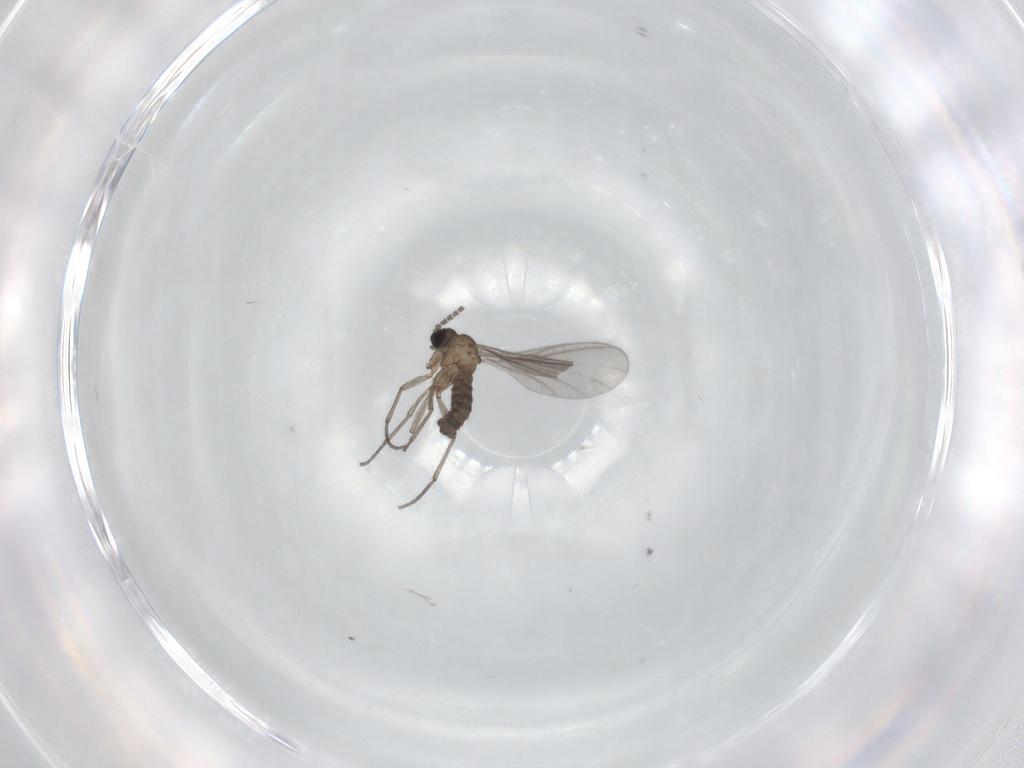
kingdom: Animalia
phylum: Arthropoda
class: Insecta
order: Diptera
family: Sciaridae
